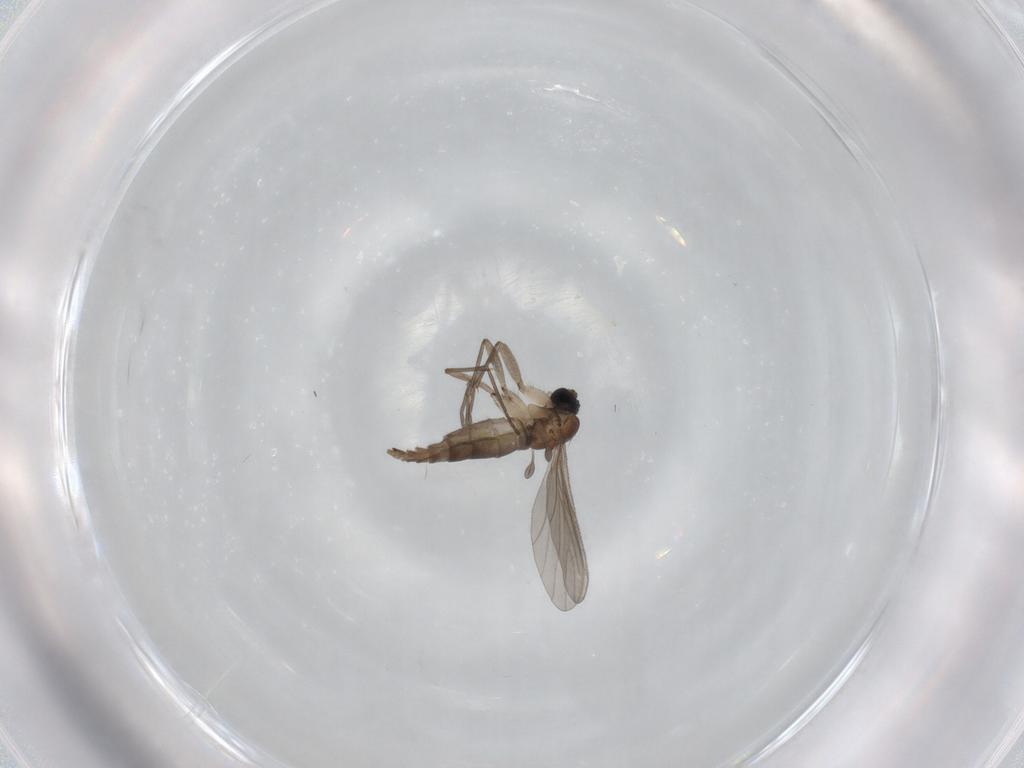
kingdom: Animalia
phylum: Arthropoda
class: Insecta
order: Diptera
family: Sciaridae
